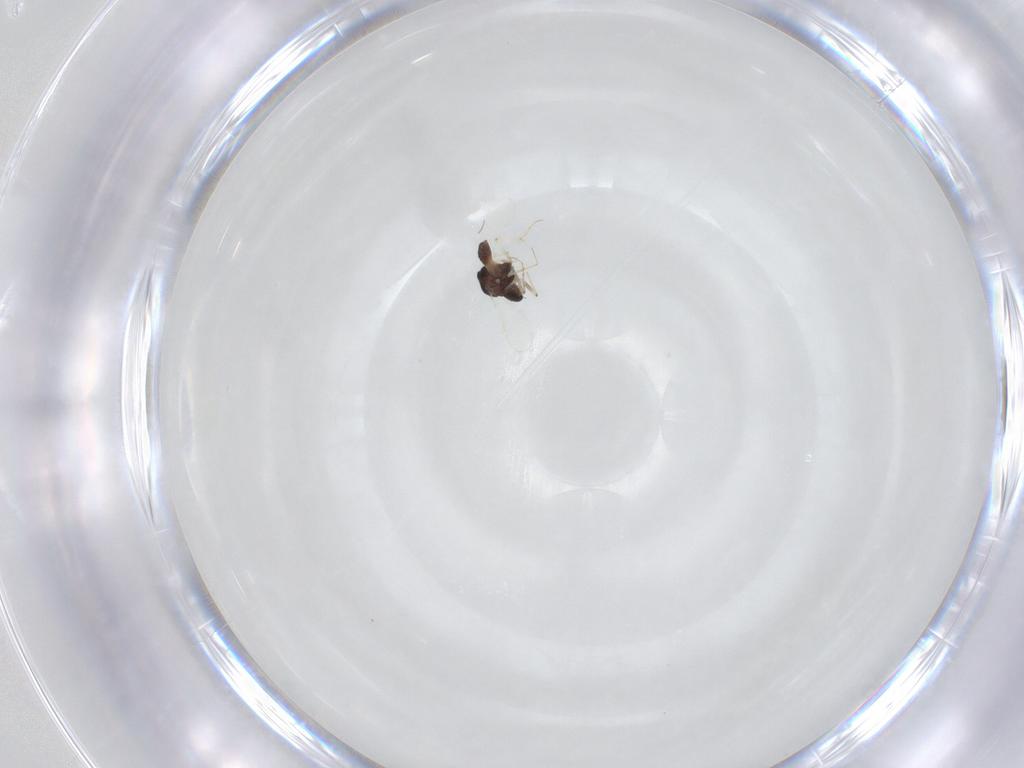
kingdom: Animalia
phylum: Arthropoda
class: Insecta
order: Diptera
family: Chironomidae
